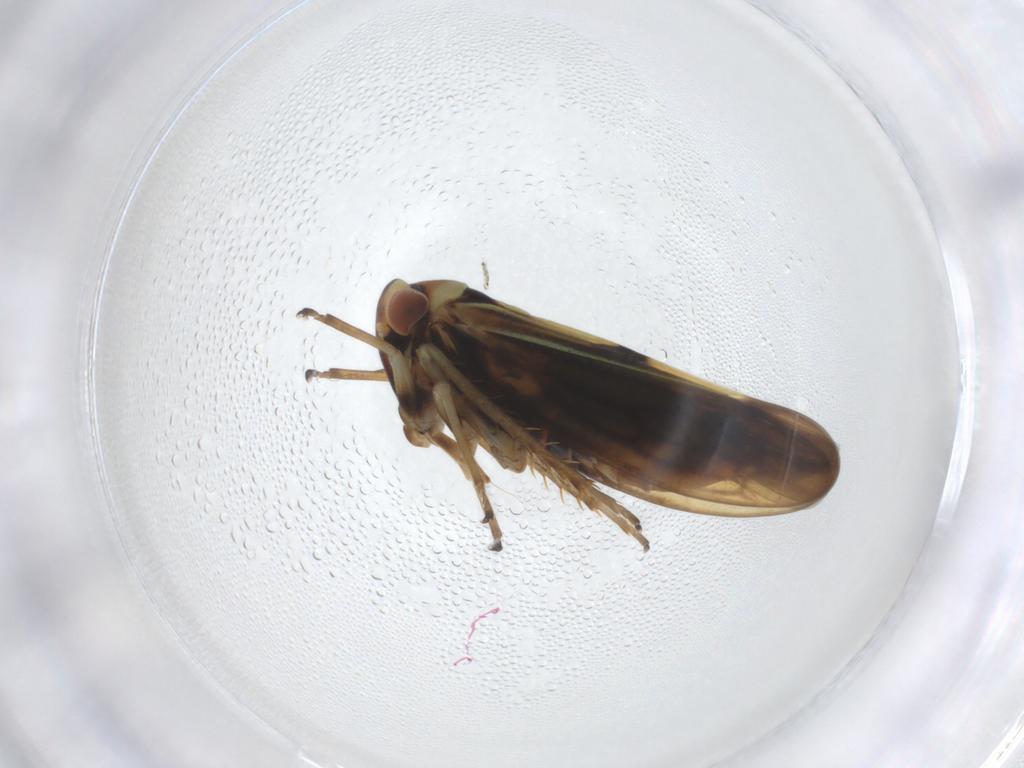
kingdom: Animalia
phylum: Arthropoda
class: Insecta
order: Hemiptera
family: Cicadellidae
